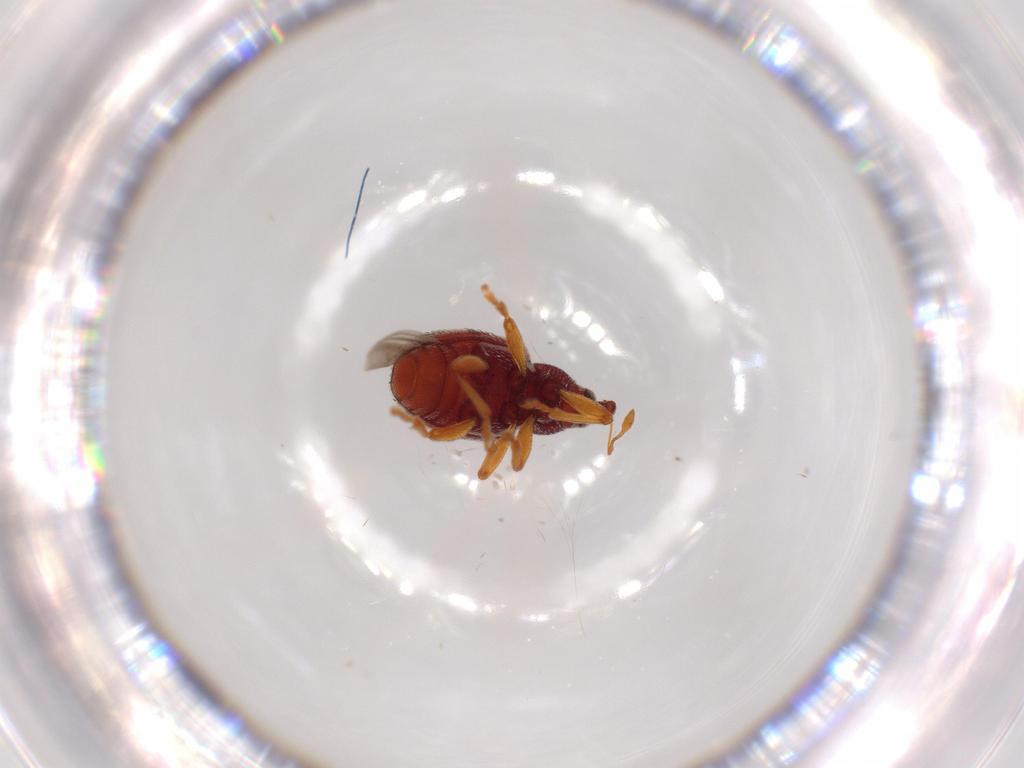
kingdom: Animalia
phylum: Arthropoda
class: Insecta
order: Coleoptera
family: Curculionidae
